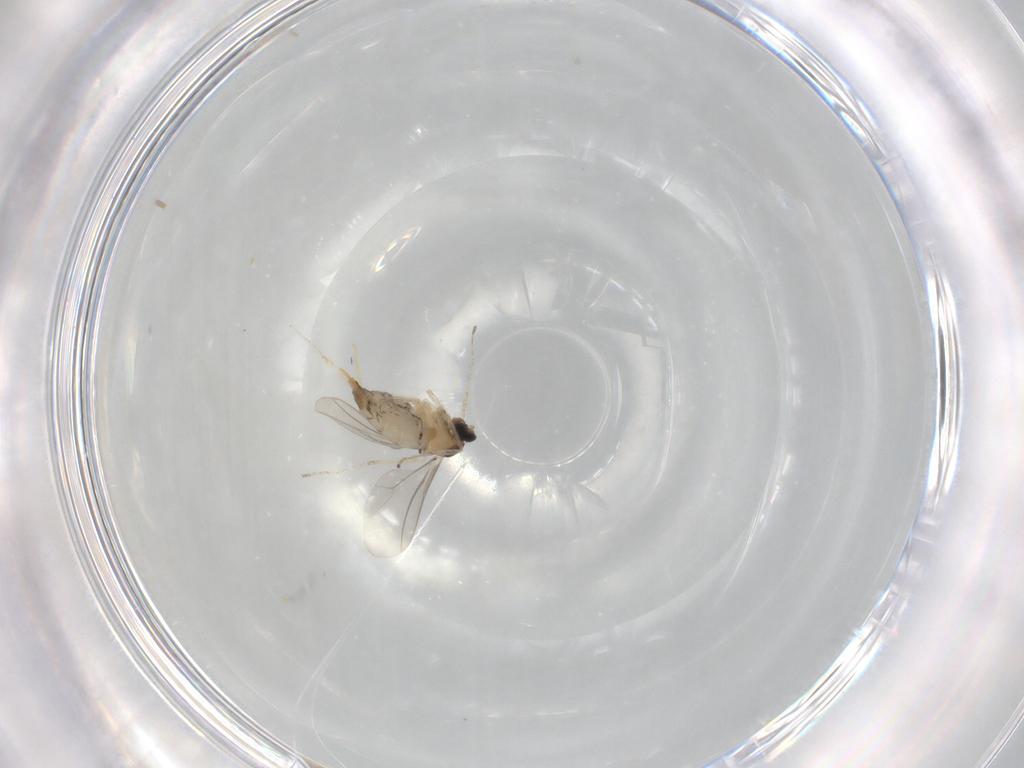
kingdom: Animalia
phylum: Arthropoda
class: Insecta
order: Diptera
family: Cecidomyiidae
